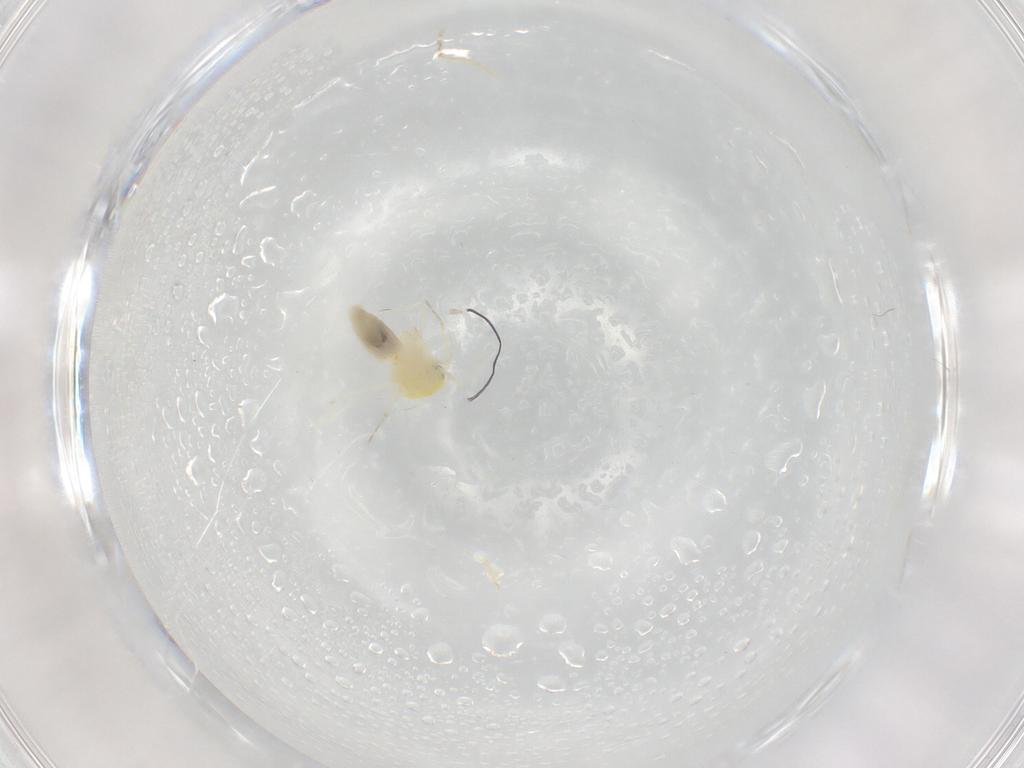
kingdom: Animalia
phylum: Arthropoda
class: Insecta
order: Hemiptera
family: Aleyrodidae
